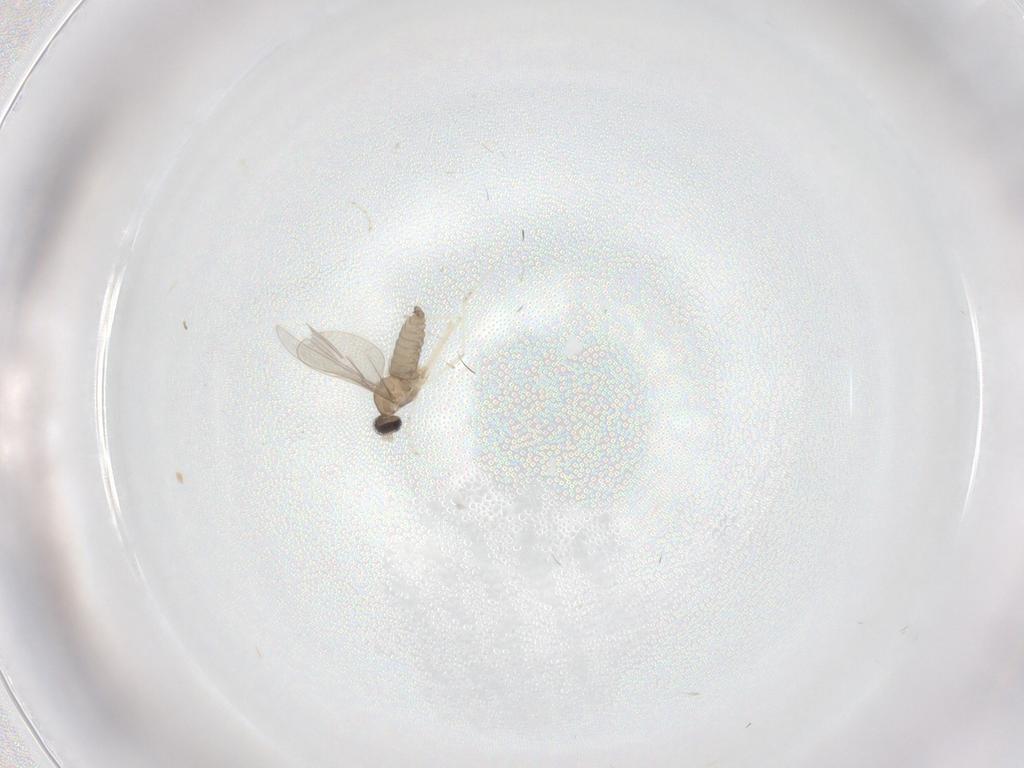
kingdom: Animalia
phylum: Arthropoda
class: Insecta
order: Diptera
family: Cecidomyiidae
